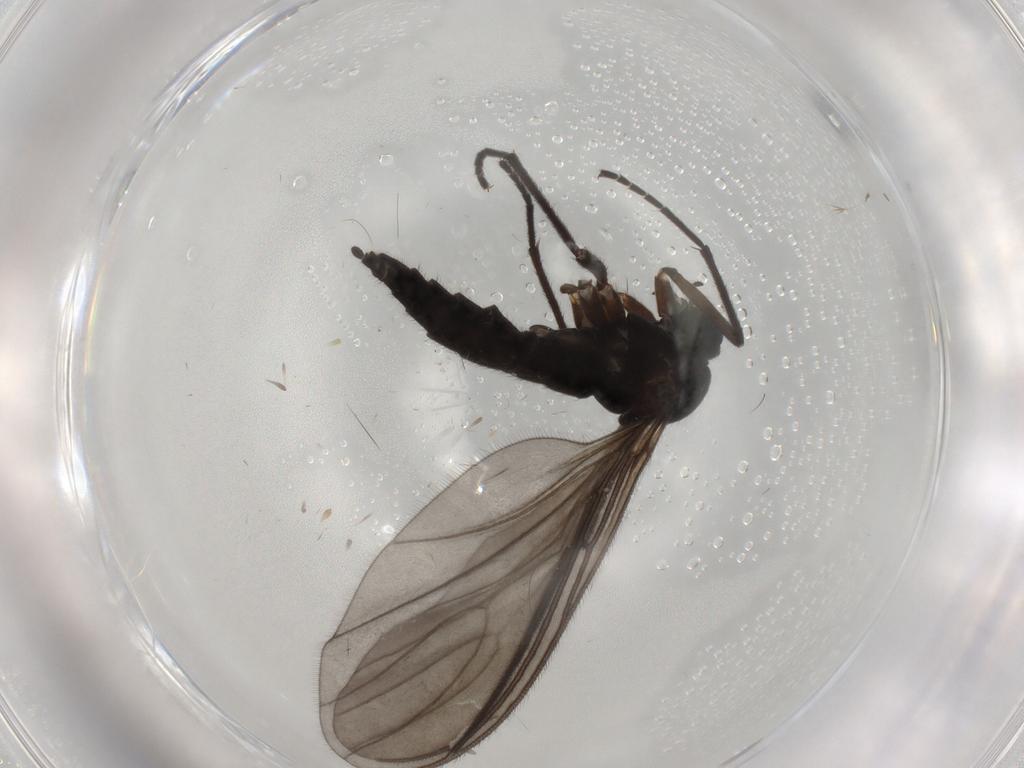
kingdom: Animalia
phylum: Arthropoda
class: Insecta
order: Diptera
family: Sciaridae
